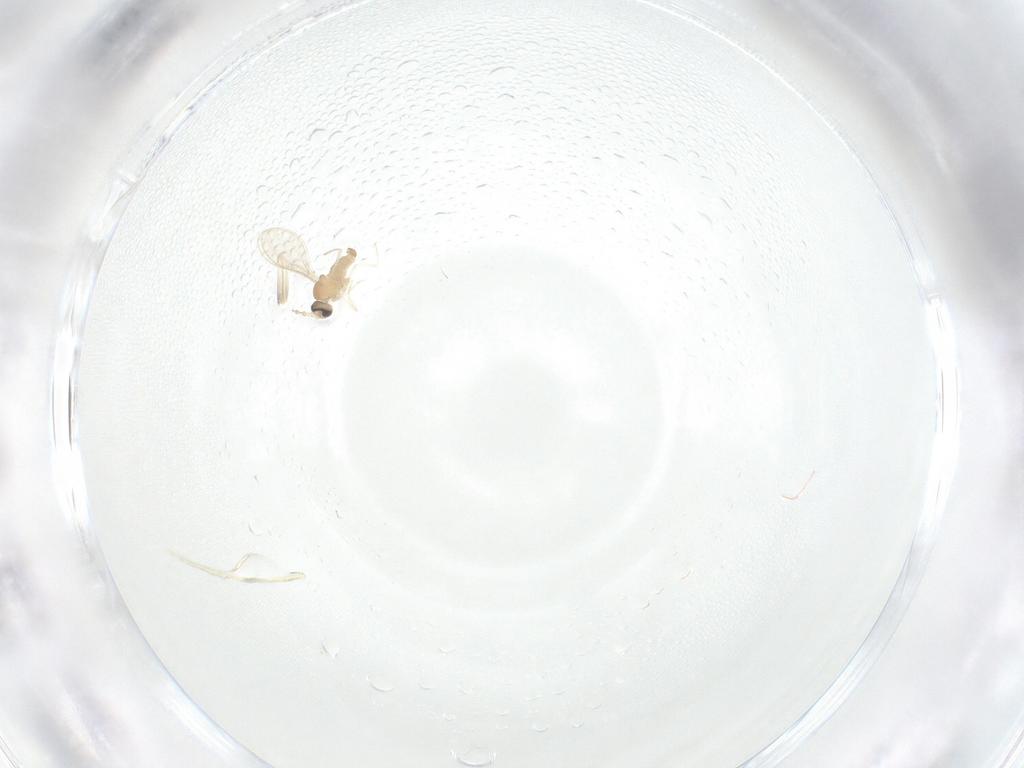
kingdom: Animalia
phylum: Arthropoda
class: Insecta
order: Diptera
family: Cecidomyiidae
